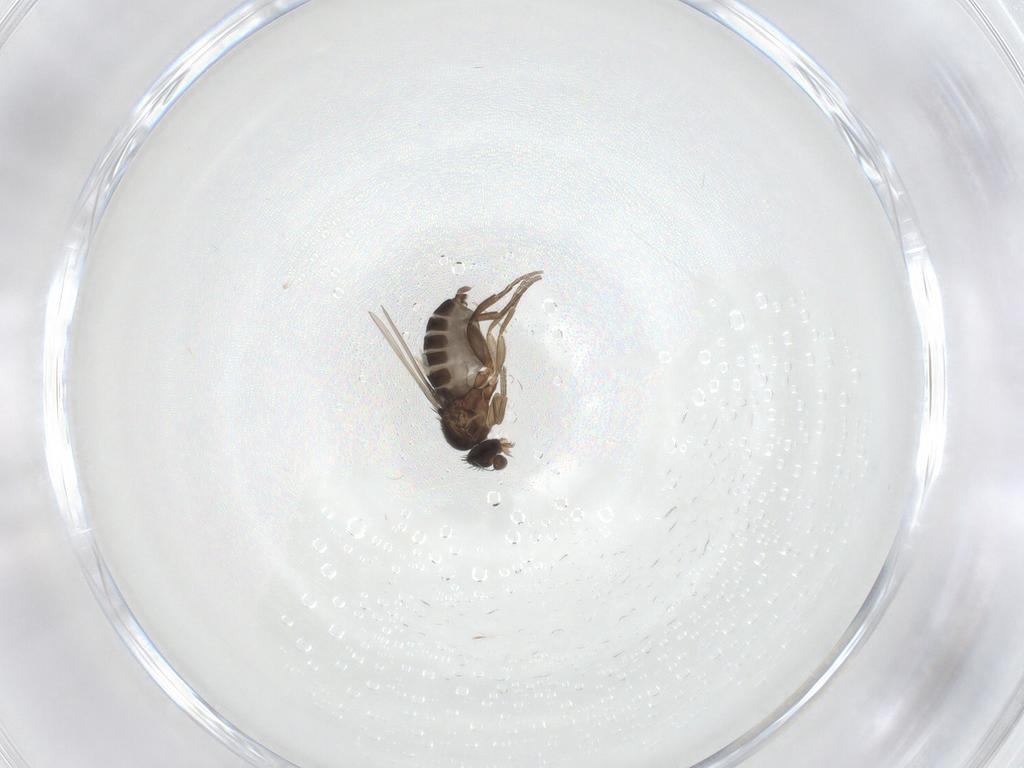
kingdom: Animalia
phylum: Arthropoda
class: Insecta
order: Diptera
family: Phoridae
